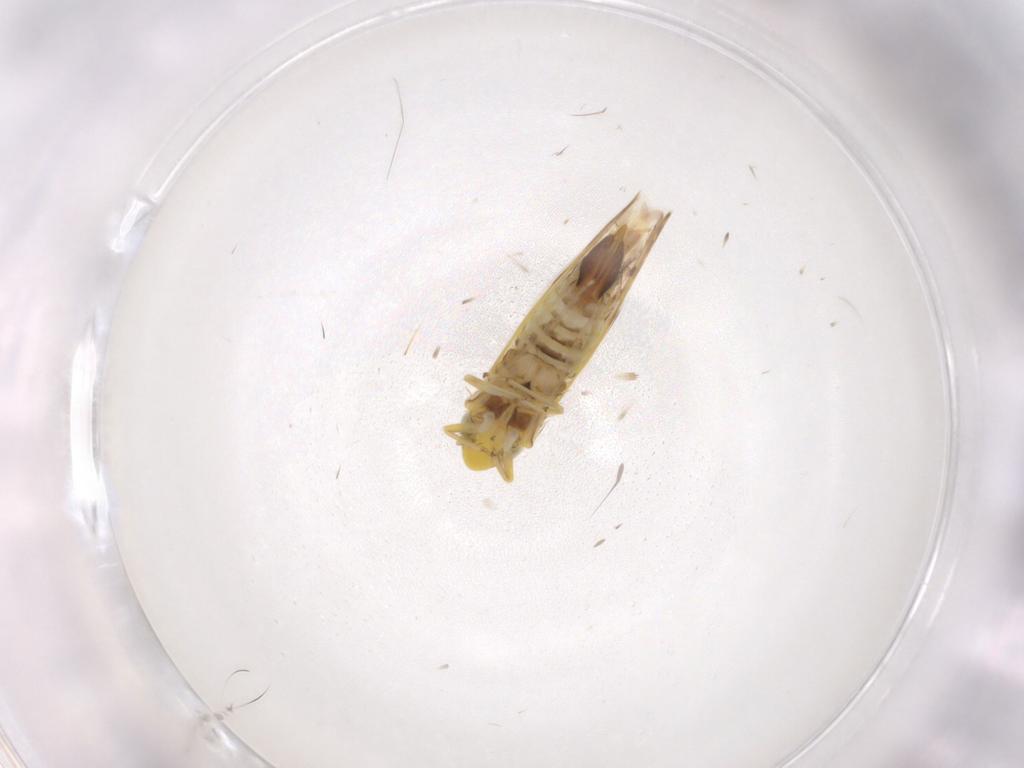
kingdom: Animalia
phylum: Arthropoda
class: Insecta
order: Hemiptera
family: Cicadellidae
